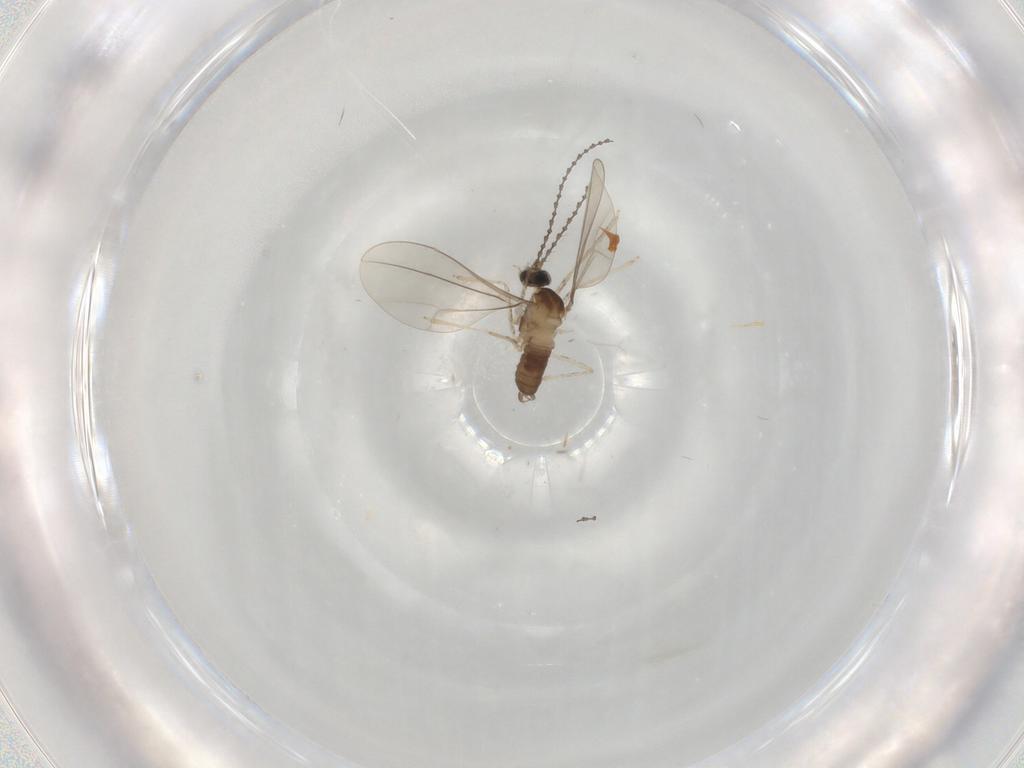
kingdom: Animalia
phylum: Arthropoda
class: Insecta
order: Diptera
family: Cecidomyiidae
